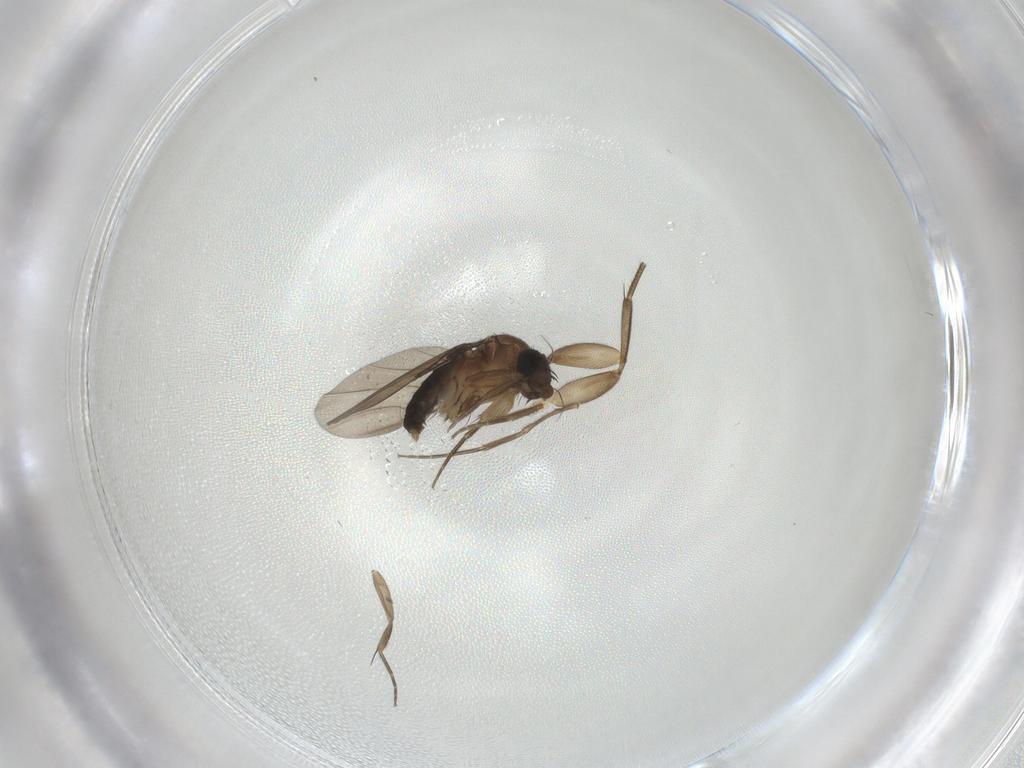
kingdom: Animalia
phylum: Arthropoda
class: Insecta
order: Diptera
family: Phoridae
